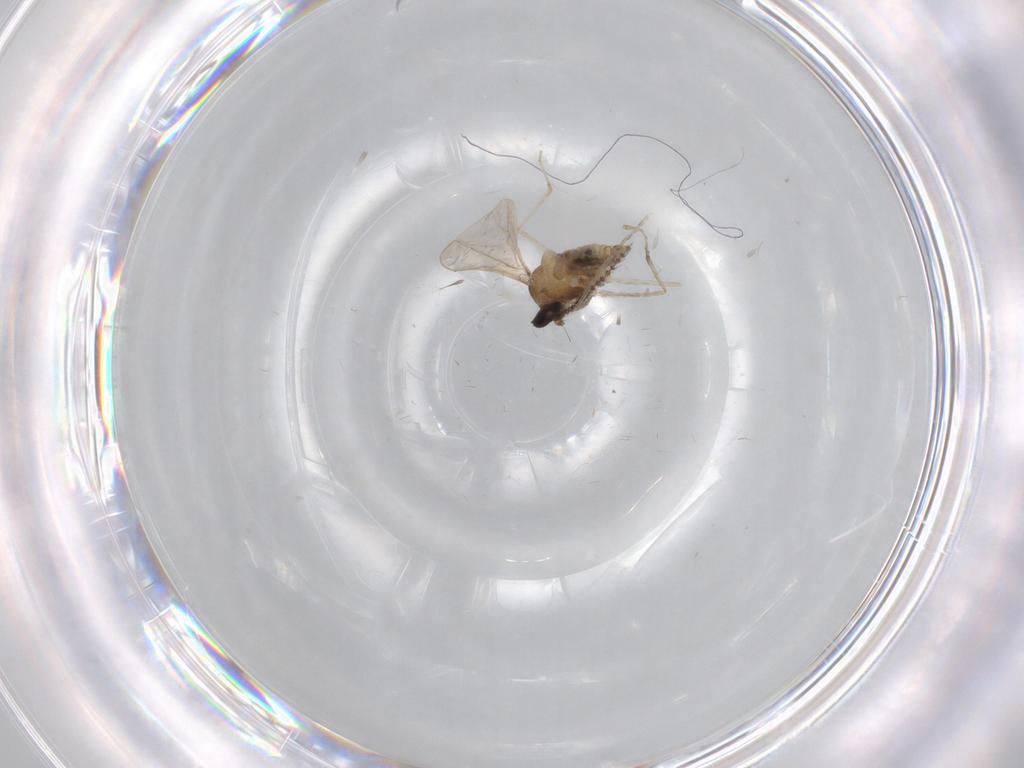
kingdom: Animalia
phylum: Arthropoda
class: Insecta
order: Diptera
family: Cecidomyiidae
